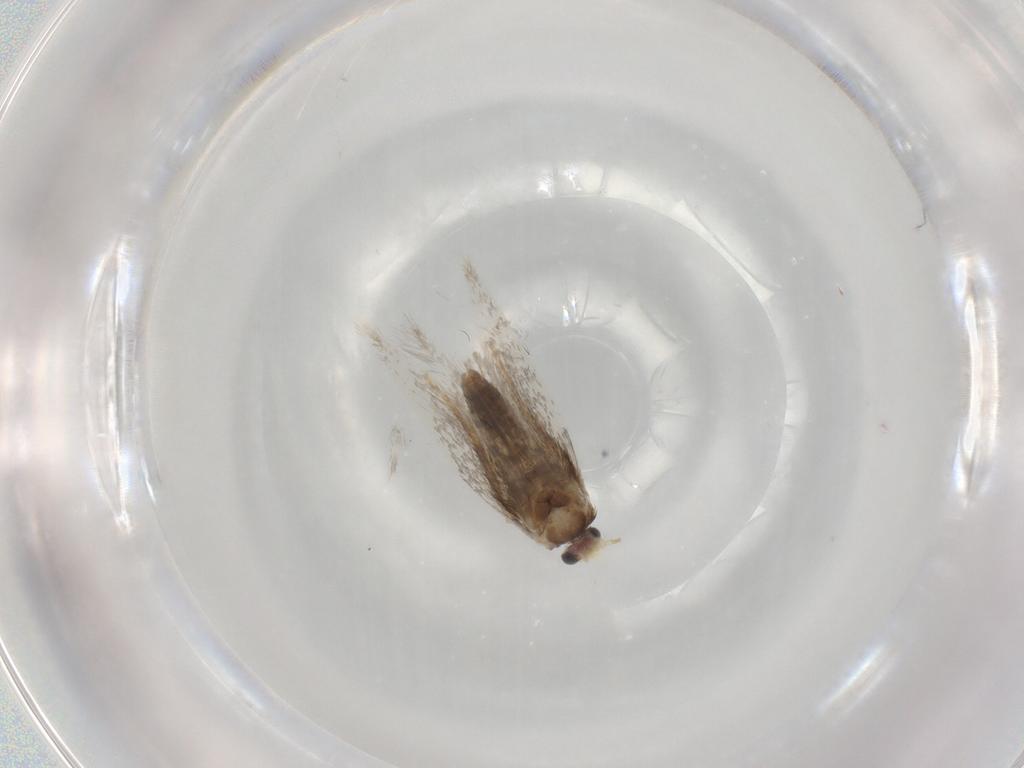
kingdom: Animalia
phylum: Arthropoda
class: Insecta
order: Lepidoptera
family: Nepticulidae
